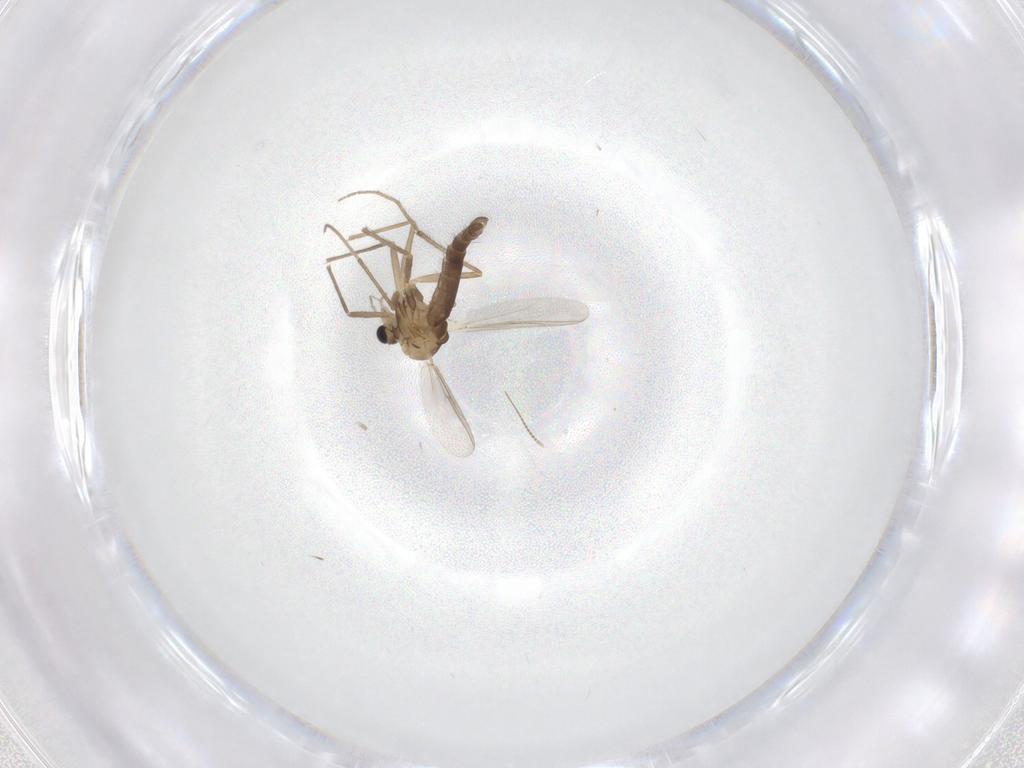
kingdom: Animalia
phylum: Arthropoda
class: Insecta
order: Diptera
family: Chironomidae
